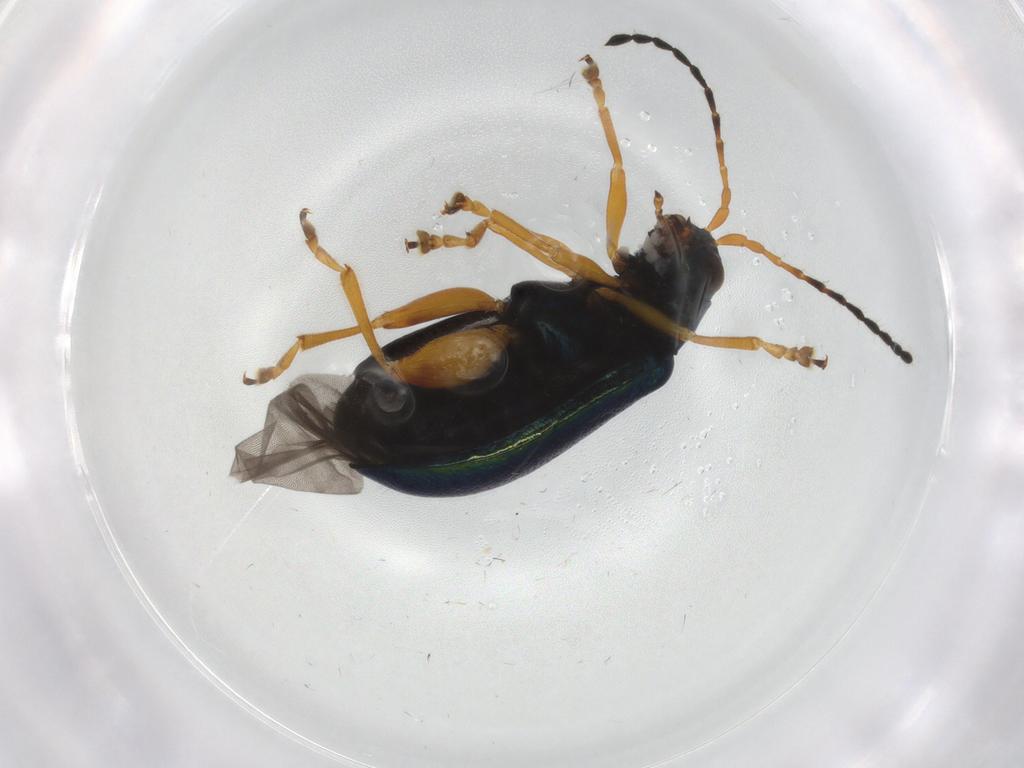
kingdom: Animalia
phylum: Arthropoda
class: Insecta
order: Coleoptera
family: Chrysomelidae
